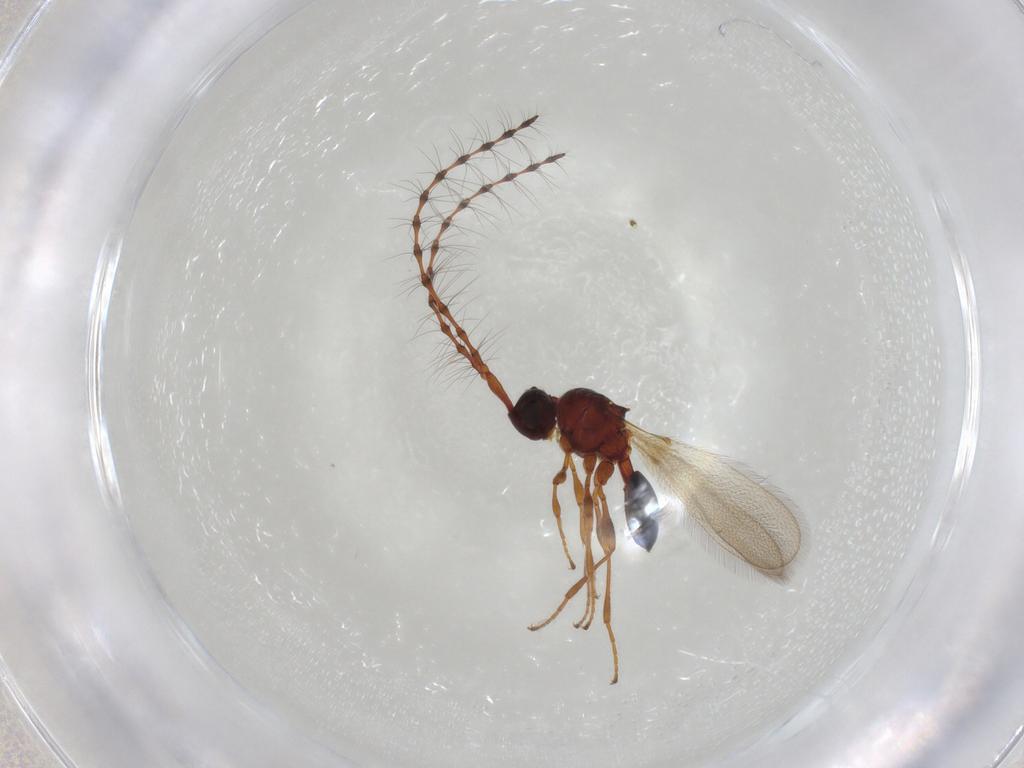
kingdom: Animalia
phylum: Arthropoda
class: Insecta
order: Hymenoptera
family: Diapriidae
